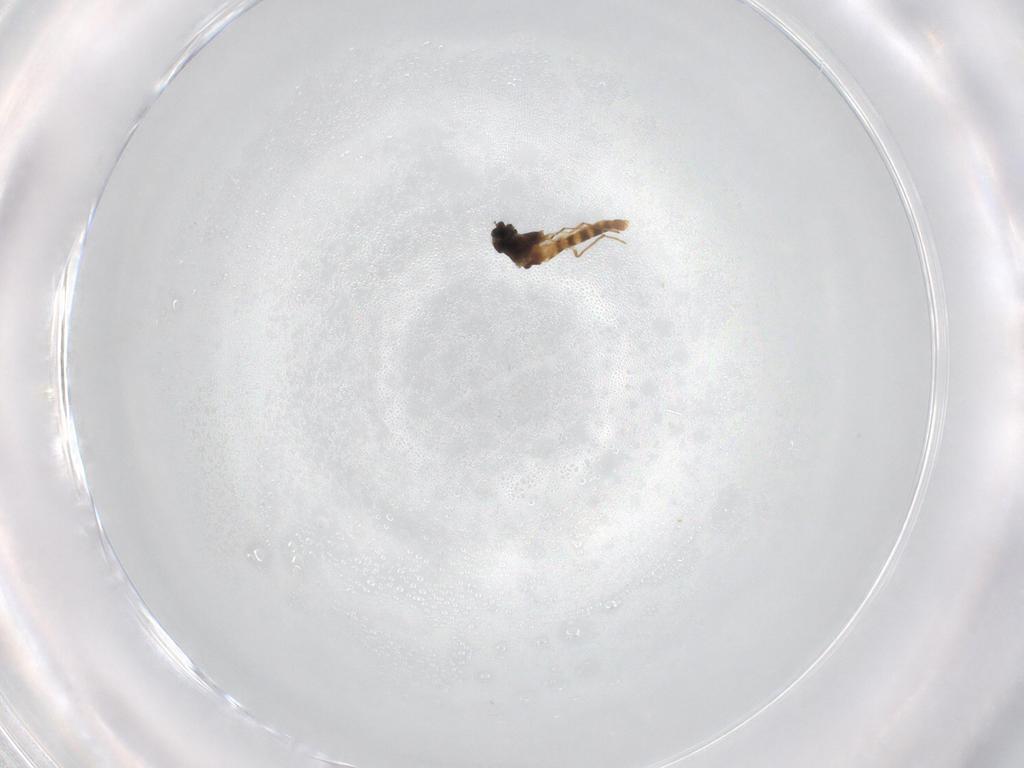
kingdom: Animalia
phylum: Arthropoda
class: Insecta
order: Diptera
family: Chironomidae
